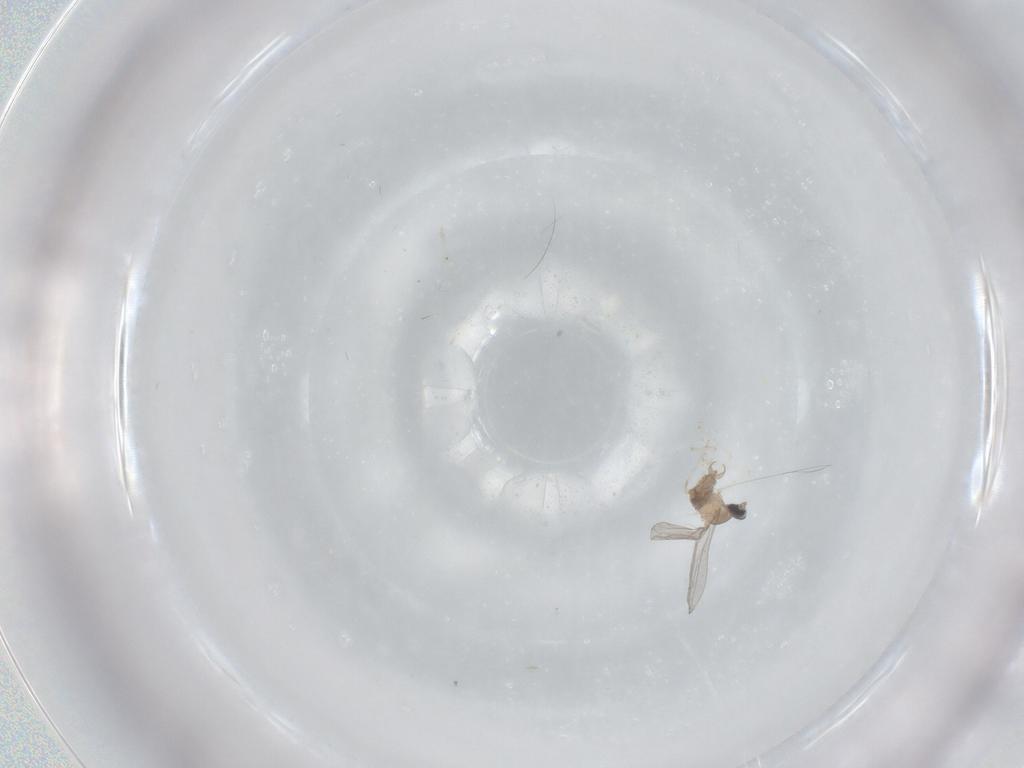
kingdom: Animalia
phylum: Arthropoda
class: Insecta
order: Diptera
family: Cecidomyiidae
